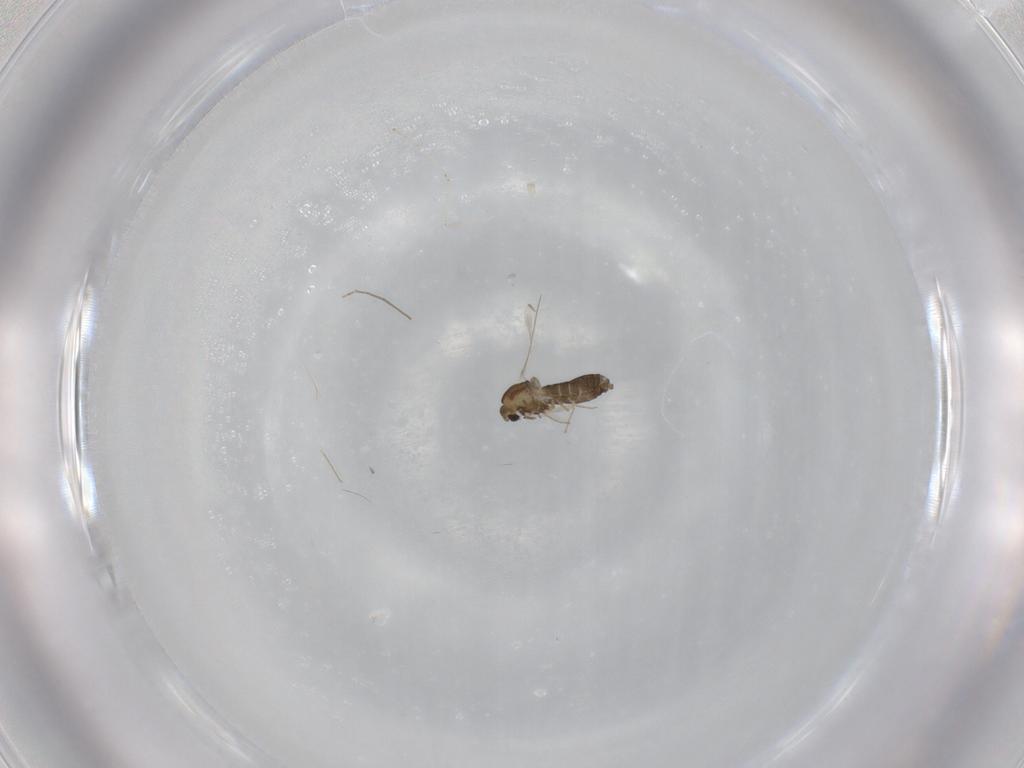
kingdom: Animalia
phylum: Arthropoda
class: Insecta
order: Diptera
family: Chironomidae
